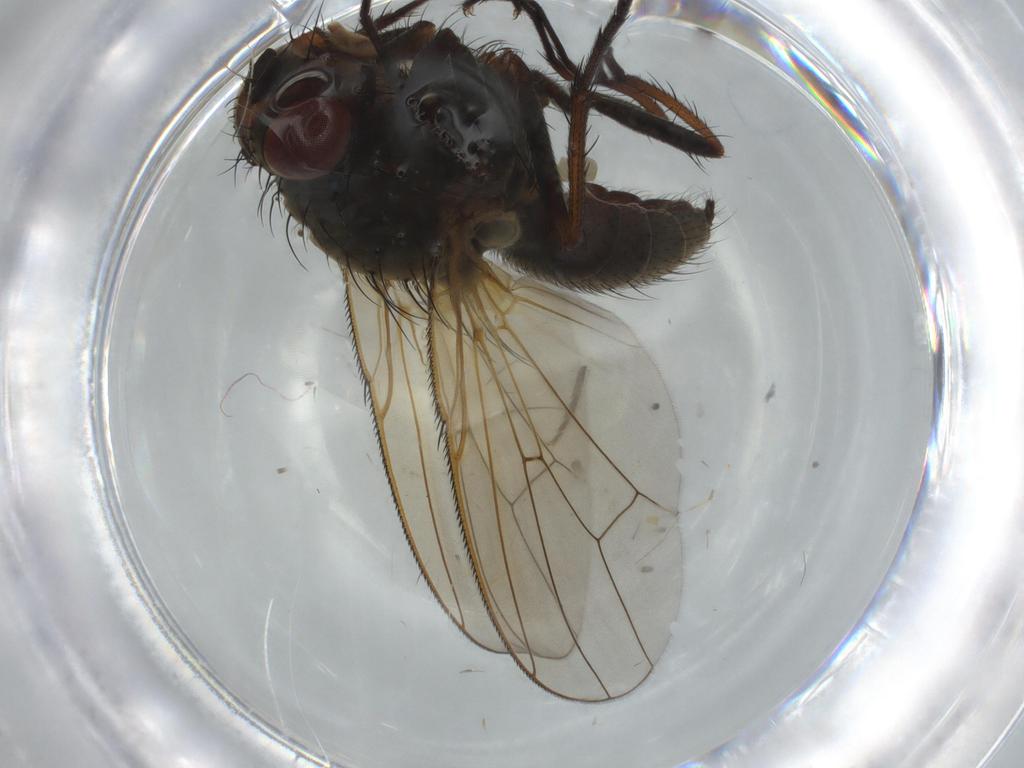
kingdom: Animalia
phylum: Arthropoda
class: Insecta
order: Diptera
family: Anthomyiidae
